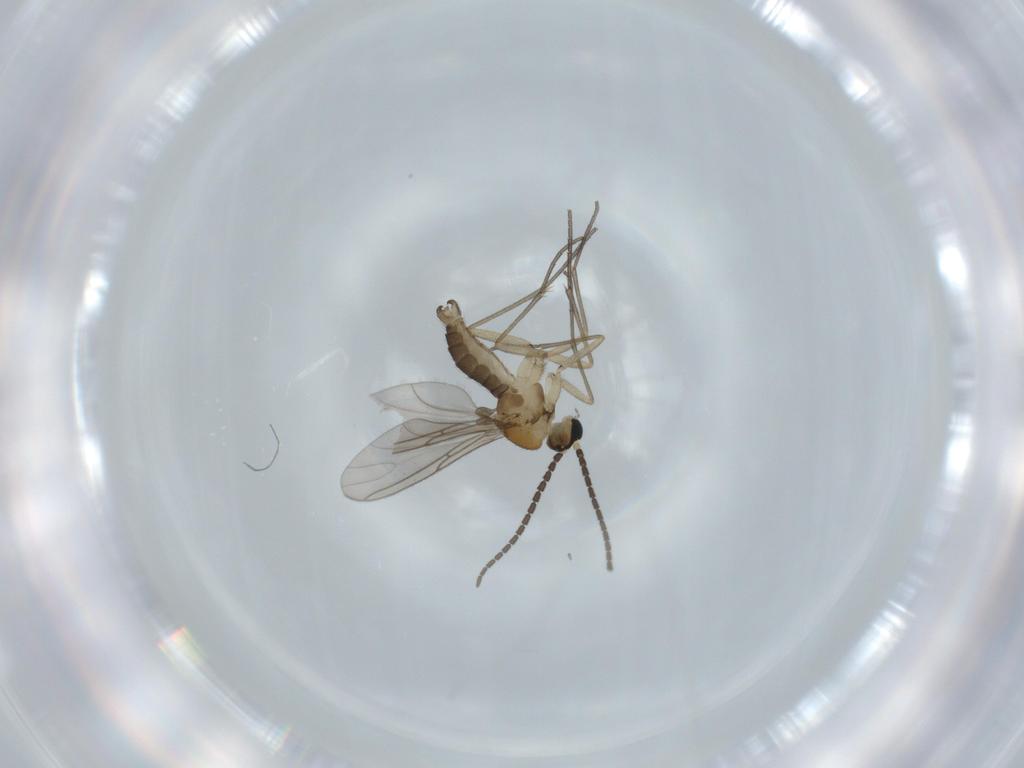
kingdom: Animalia
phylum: Arthropoda
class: Insecta
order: Diptera
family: Sciaridae
